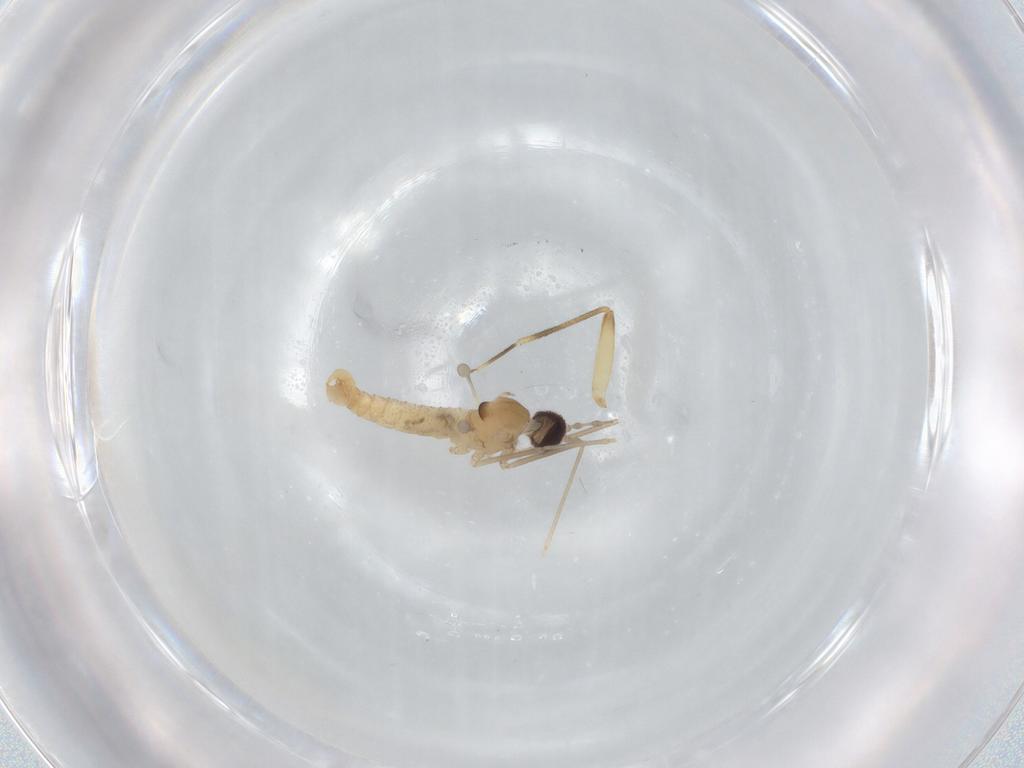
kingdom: Animalia
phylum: Arthropoda
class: Insecta
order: Diptera
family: Cecidomyiidae
